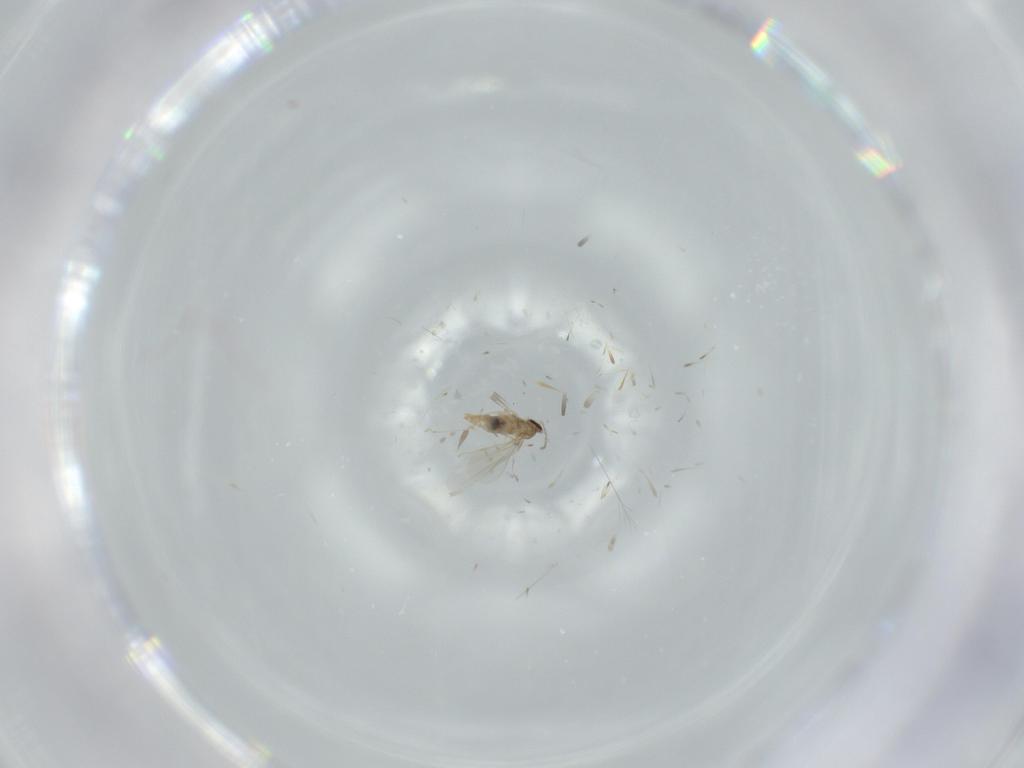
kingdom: Animalia
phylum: Arthropoda
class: Insecta
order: Diptera
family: Cecidomyiidae
